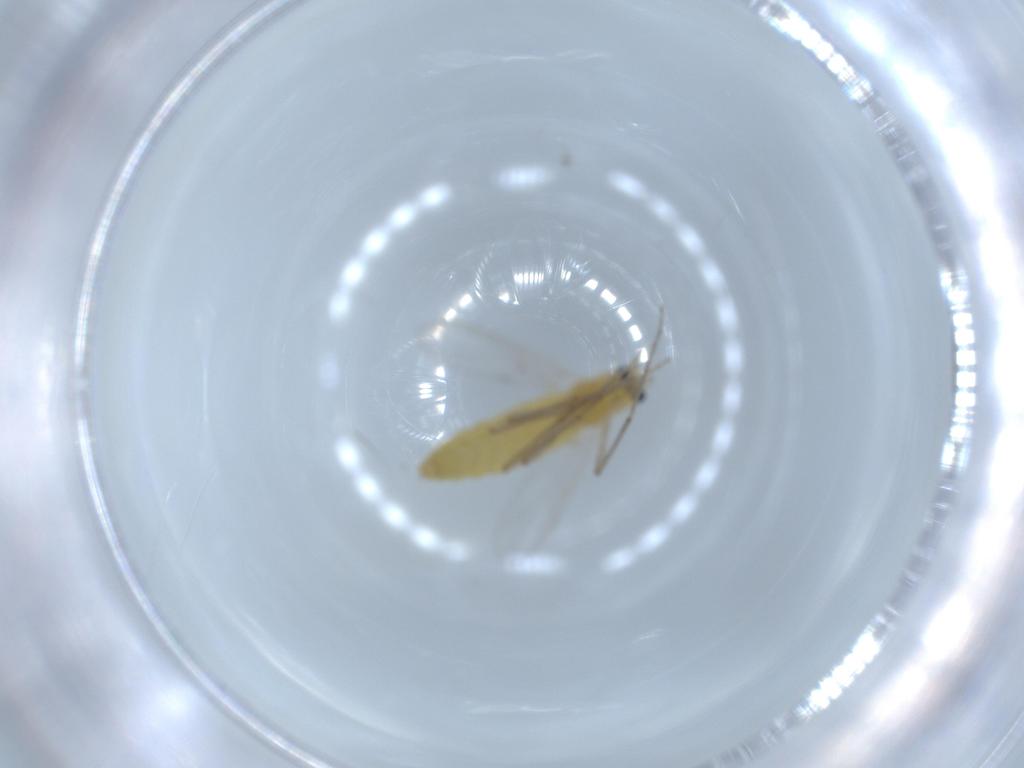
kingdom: Animalia
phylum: Arthropoda
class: Insecta
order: Diptera
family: Chironomidae
